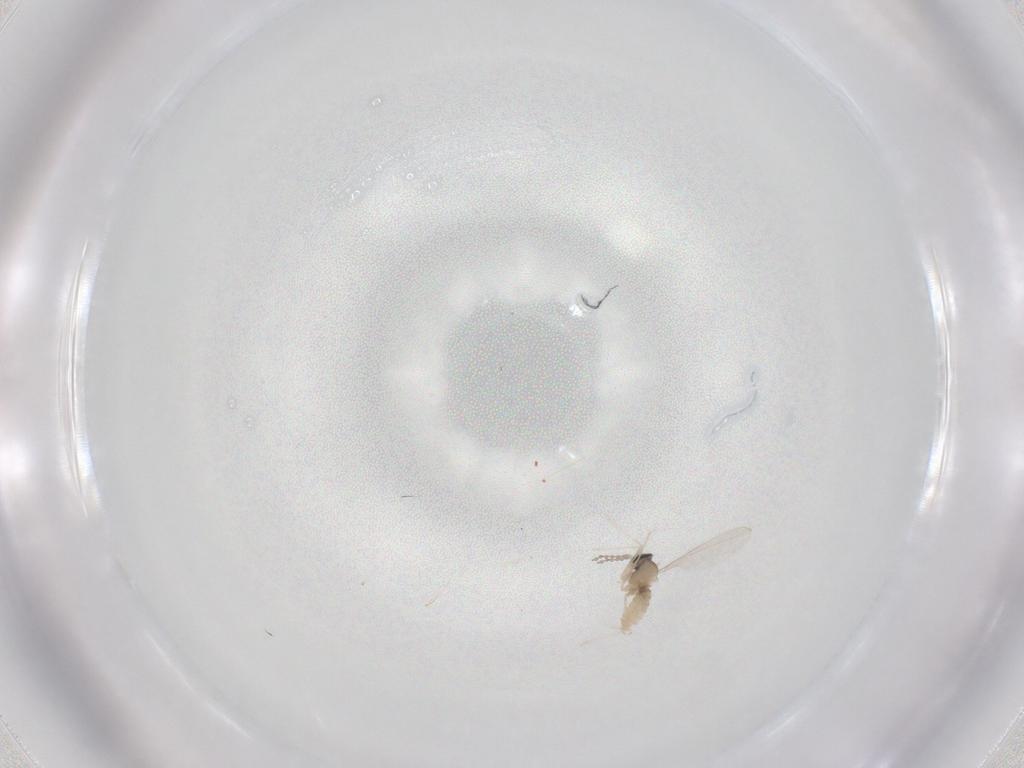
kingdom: Animalia
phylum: Arthropoda
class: Insecta
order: Diptera
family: Cecidomyiidae
